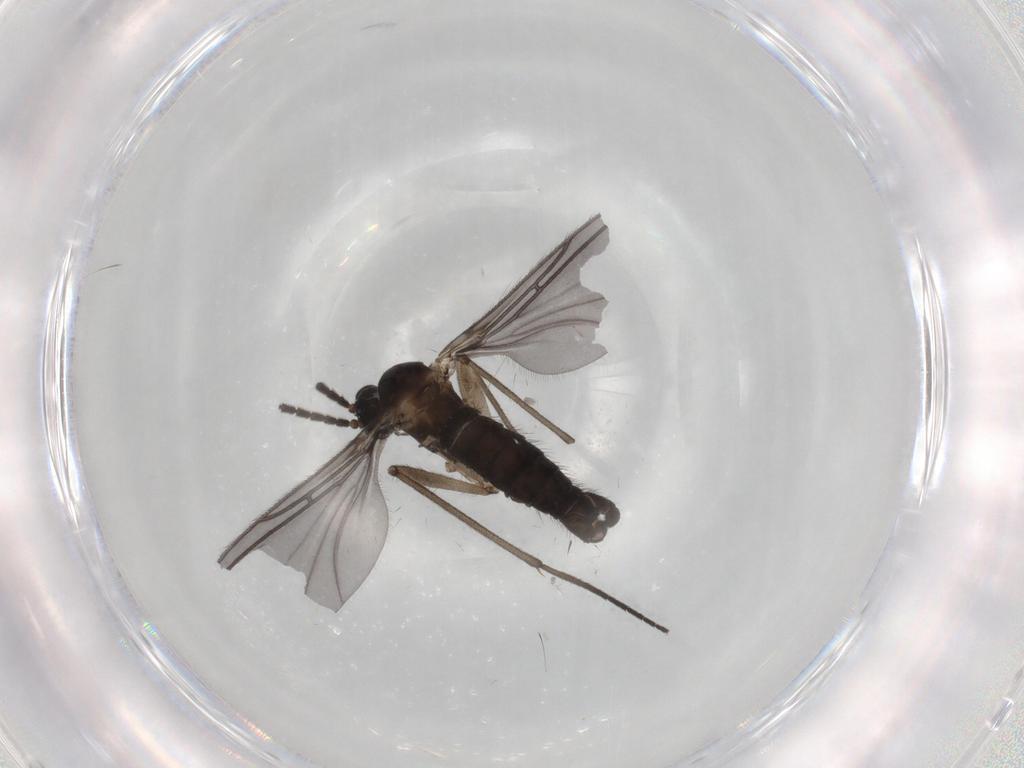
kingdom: Animalia
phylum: Arthropoda
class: Insecta
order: Diptera
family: Sciaridae
